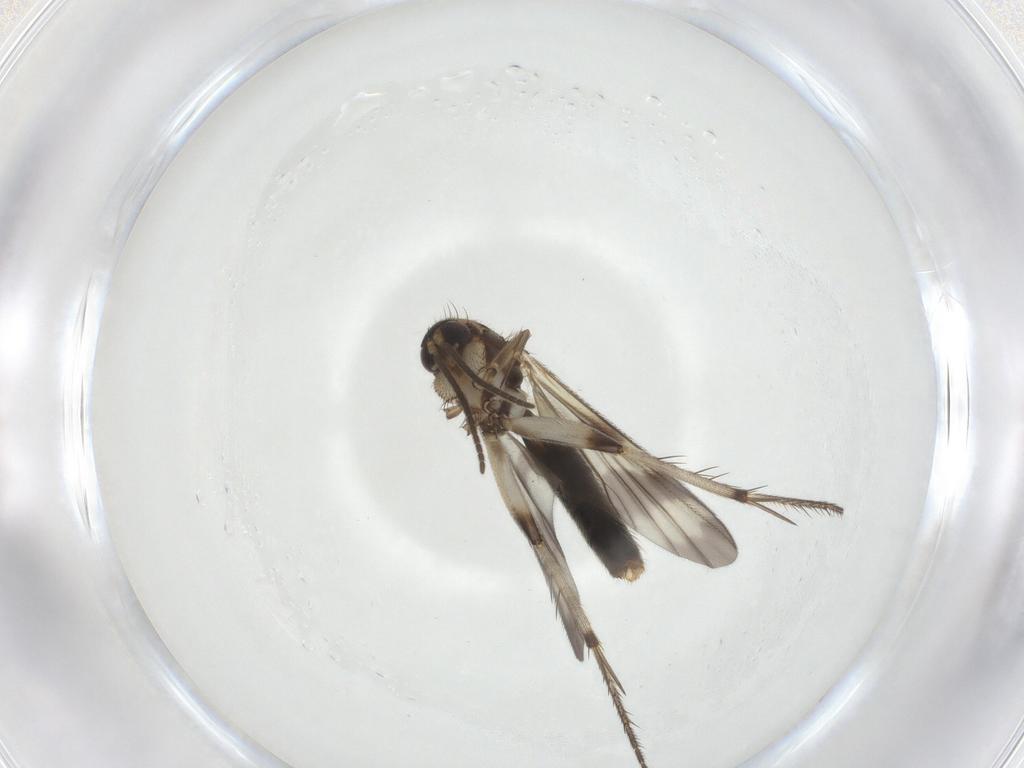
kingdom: Animalia
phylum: Arthropoda
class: Insecta
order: Diptera
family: Mycetophilidae
